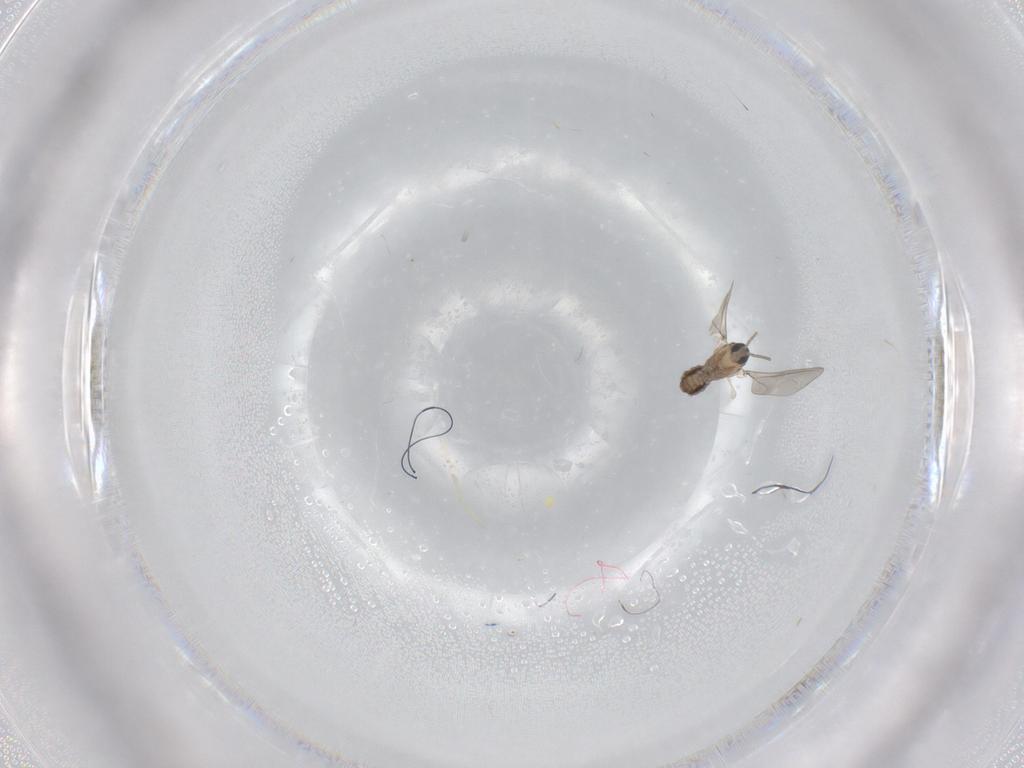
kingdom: Animalia
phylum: Arthropoda
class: Insecta
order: Diptera
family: Cecidomyiidae
